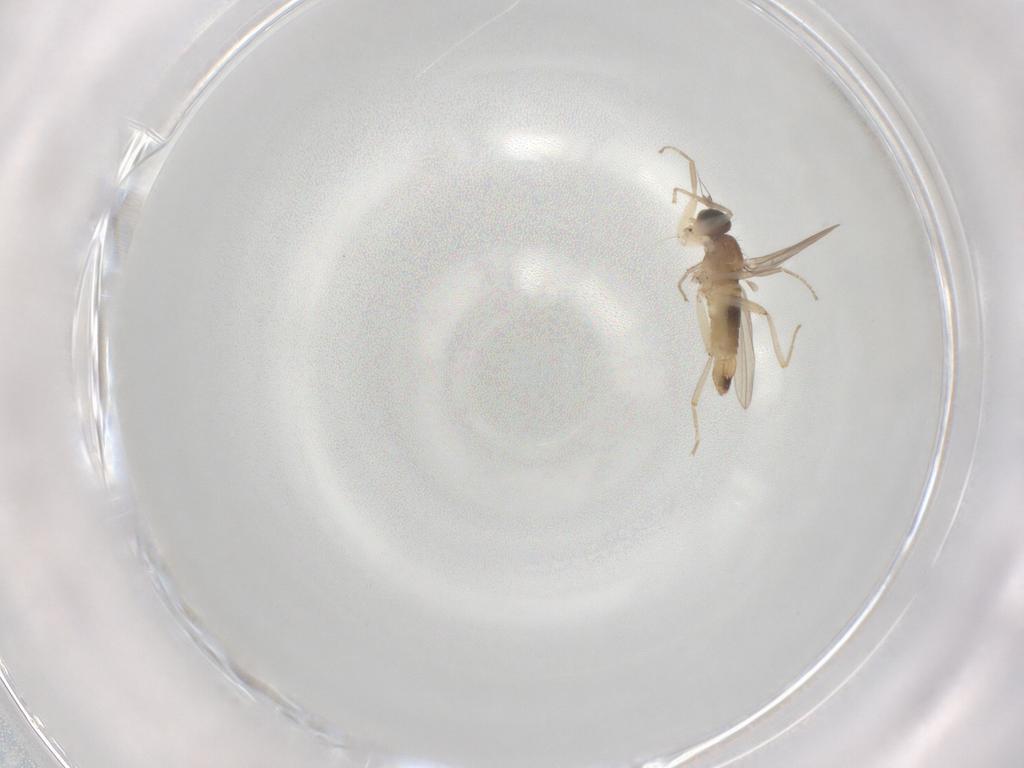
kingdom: Animalia
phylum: Arthropoda
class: Insecta
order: Diptera
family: Hybotidae
